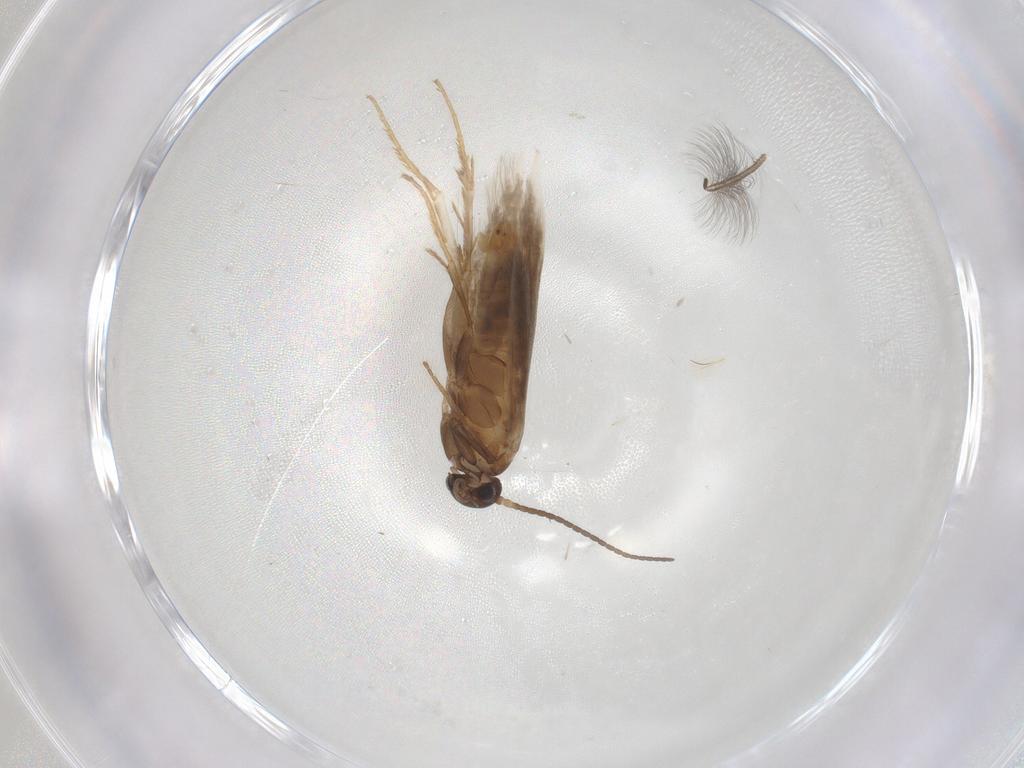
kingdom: Animalia
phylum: Arthropoda
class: Insecta
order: Lepidoptera
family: Heliozelidae
